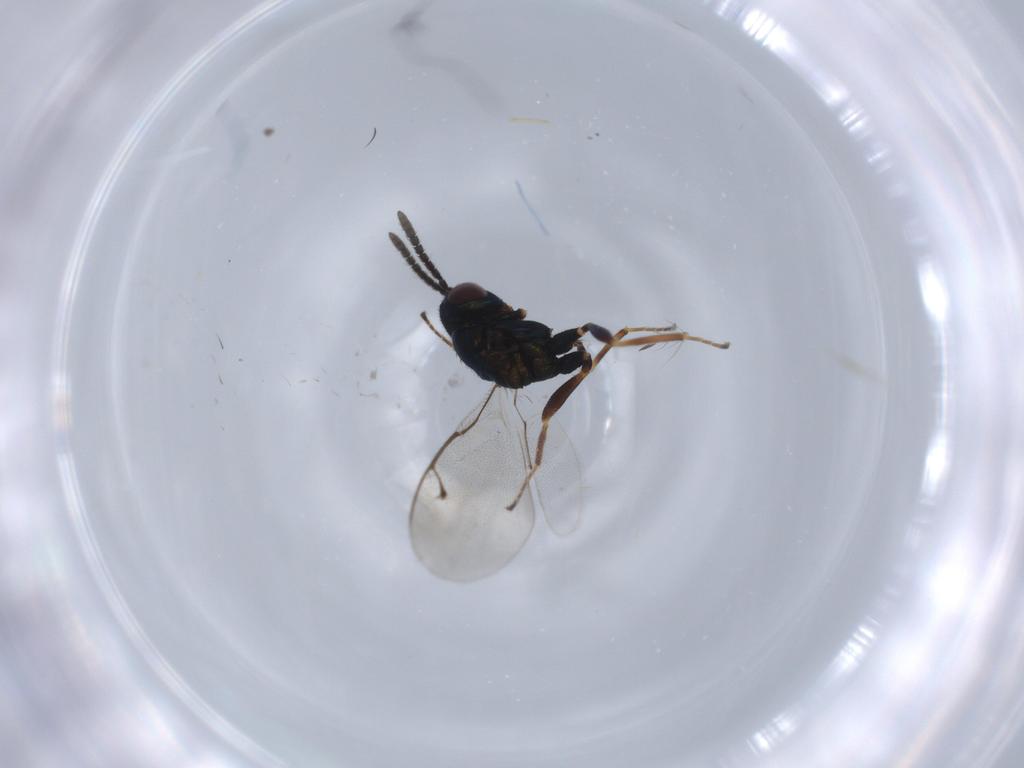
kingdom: Animalia
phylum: Arthropoda
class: Insecta
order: Hymenoptera
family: Pteromalidae
